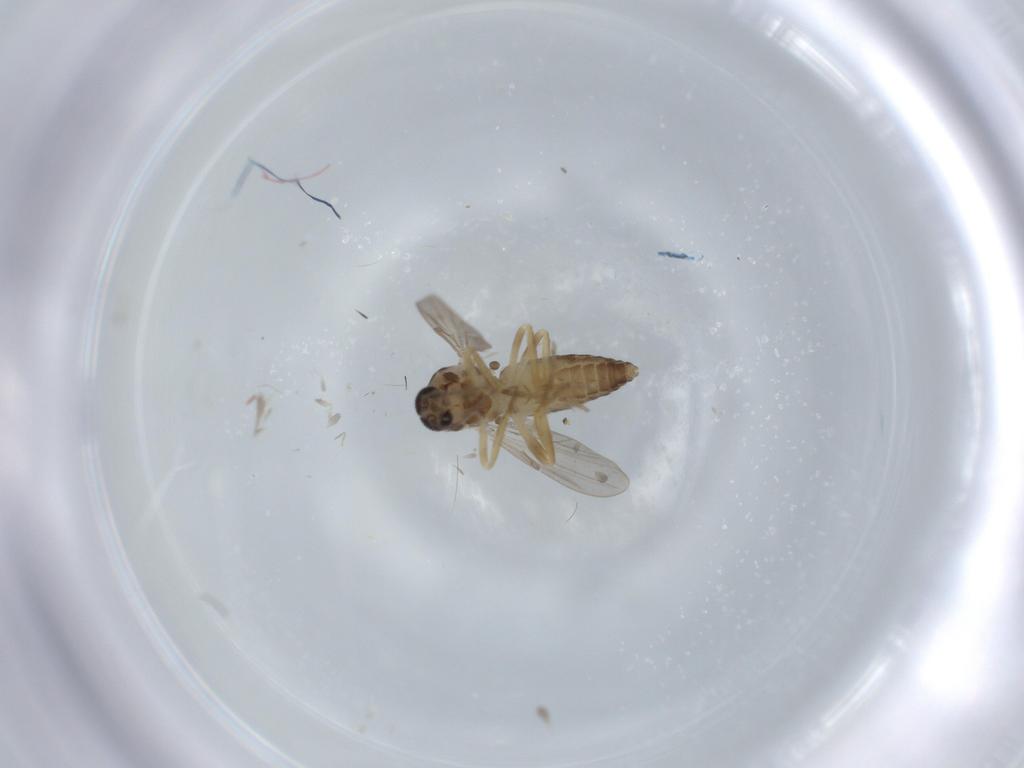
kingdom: Animalia
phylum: Arthropoda
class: Insecta
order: Diptera
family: Ceratopogonidae
